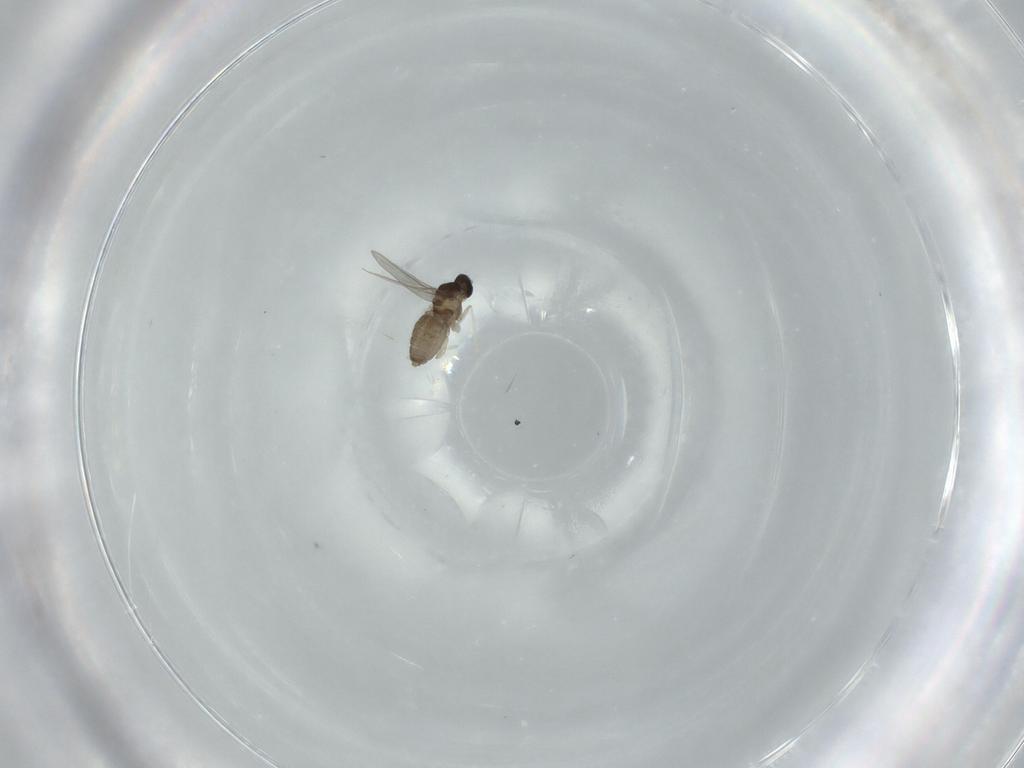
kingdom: Animalia
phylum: Arthropoda
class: Insecta
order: Diptera
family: Cecidomyiidae
